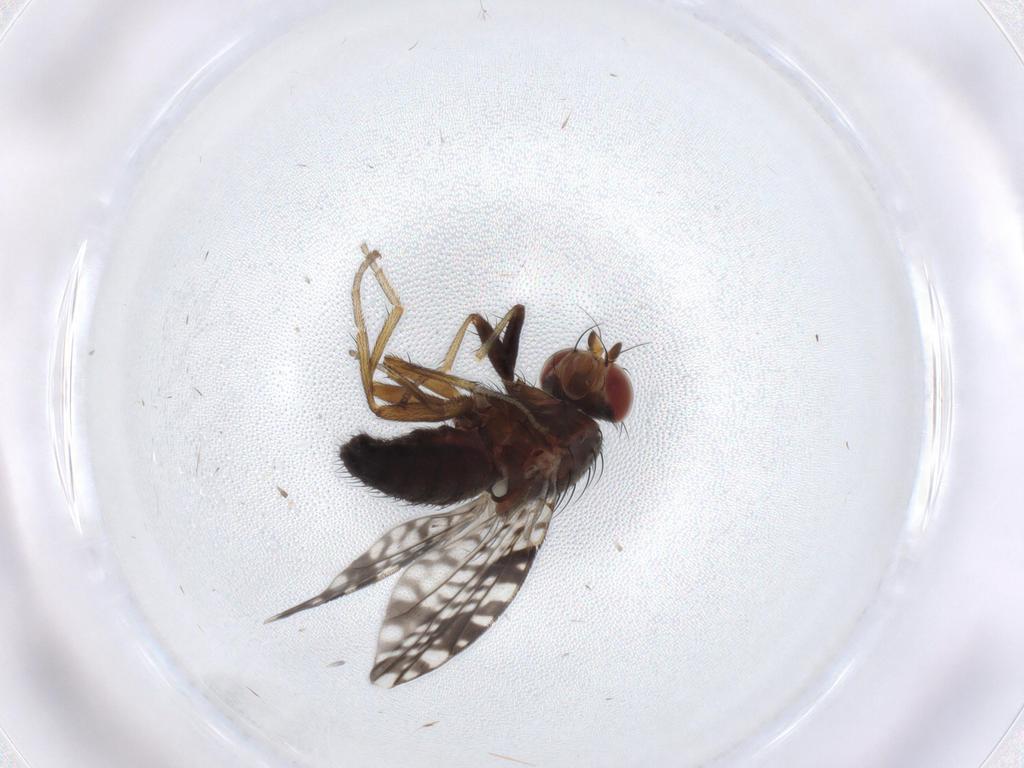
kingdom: Animalia
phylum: Arthropoda
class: Insecta
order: Diptera
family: Tephritidae
